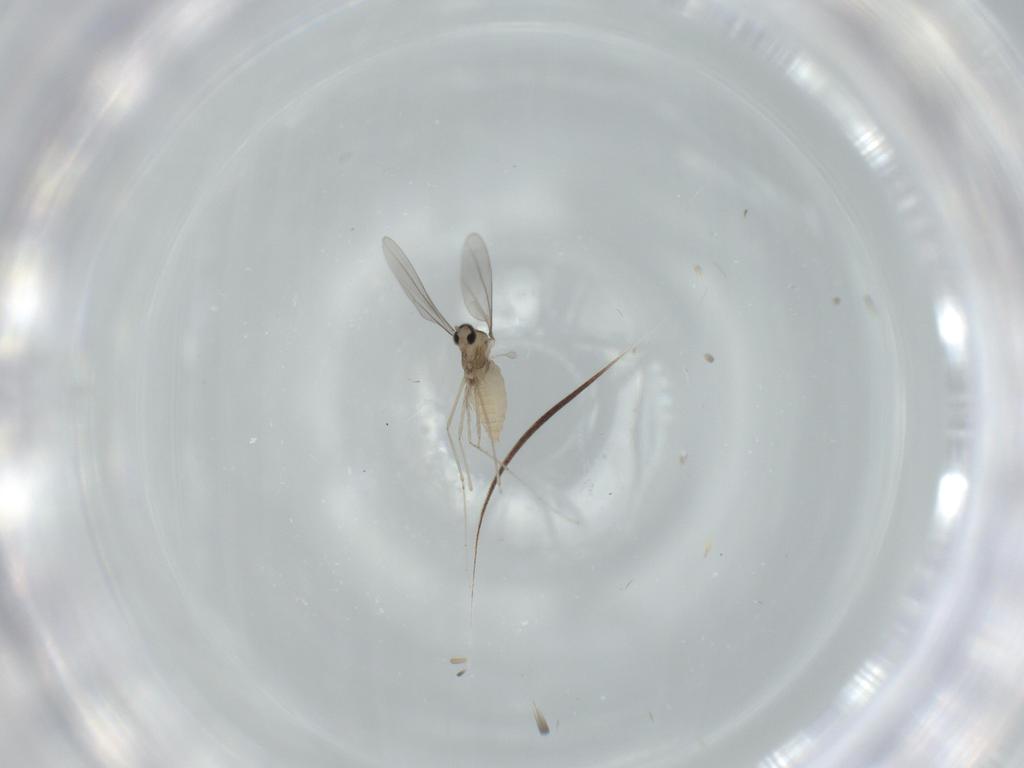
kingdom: Animalia
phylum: Arthropoda
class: Insecta
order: Diptera
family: Cecidomyiidae
